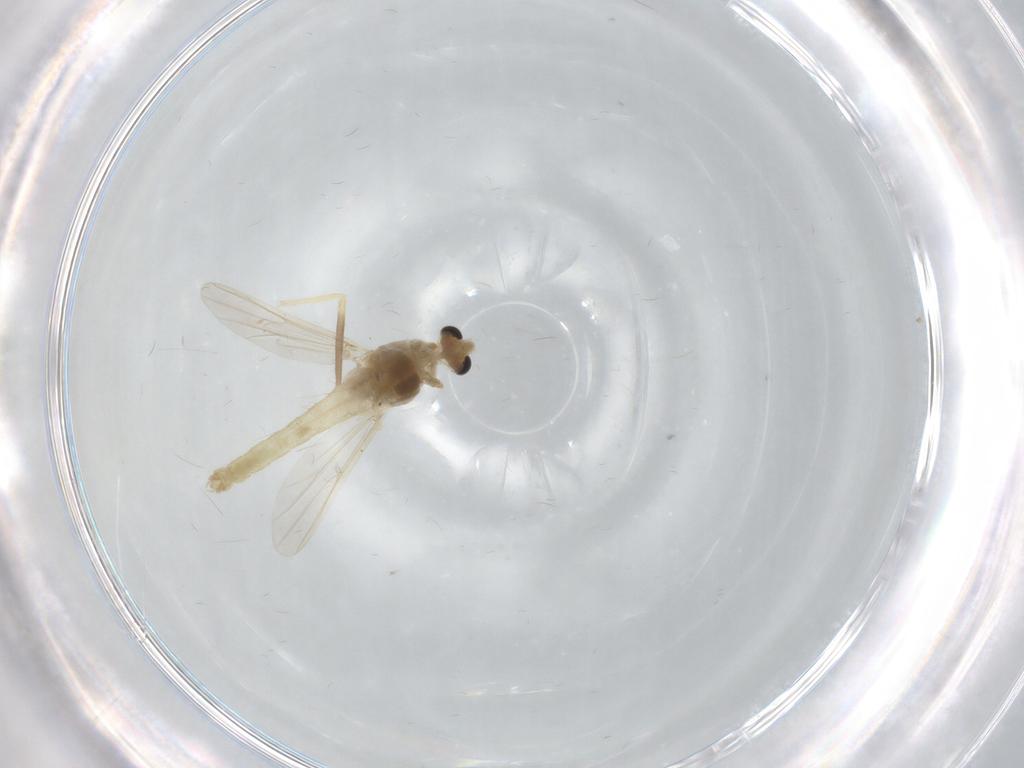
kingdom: Animalia
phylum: Arthropoda
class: Insecta
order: Diptera
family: Chironomidae
